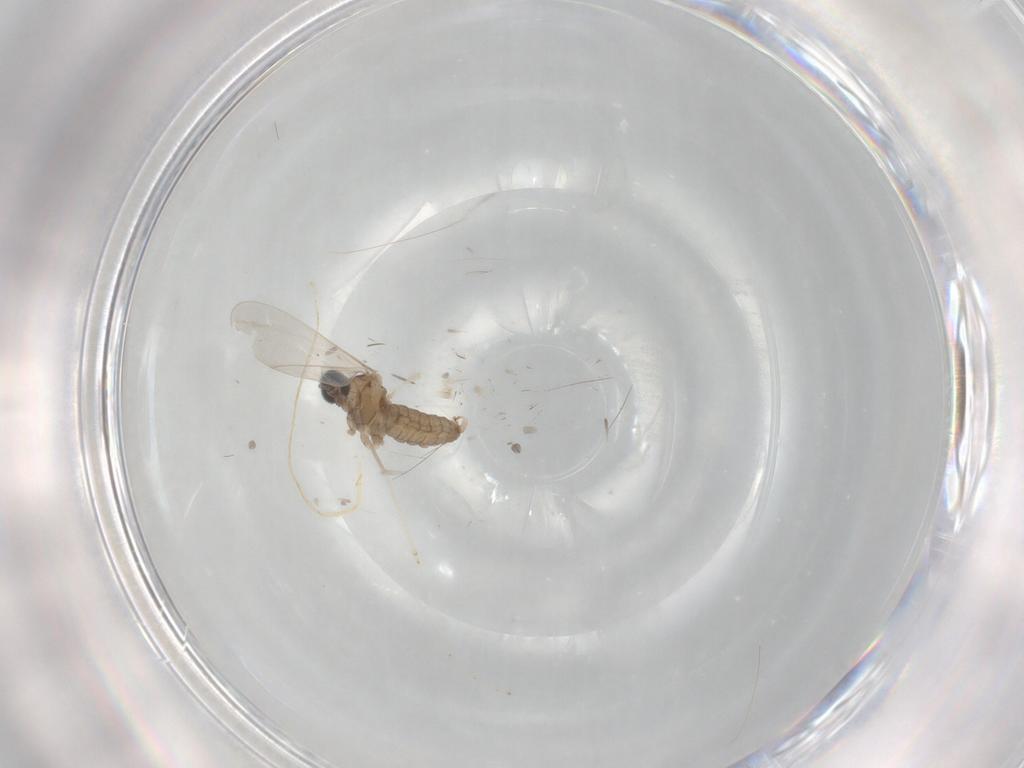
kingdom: Animalia
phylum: Arthropoda
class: Insecta
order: Diptera
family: Cecidomyiidae
